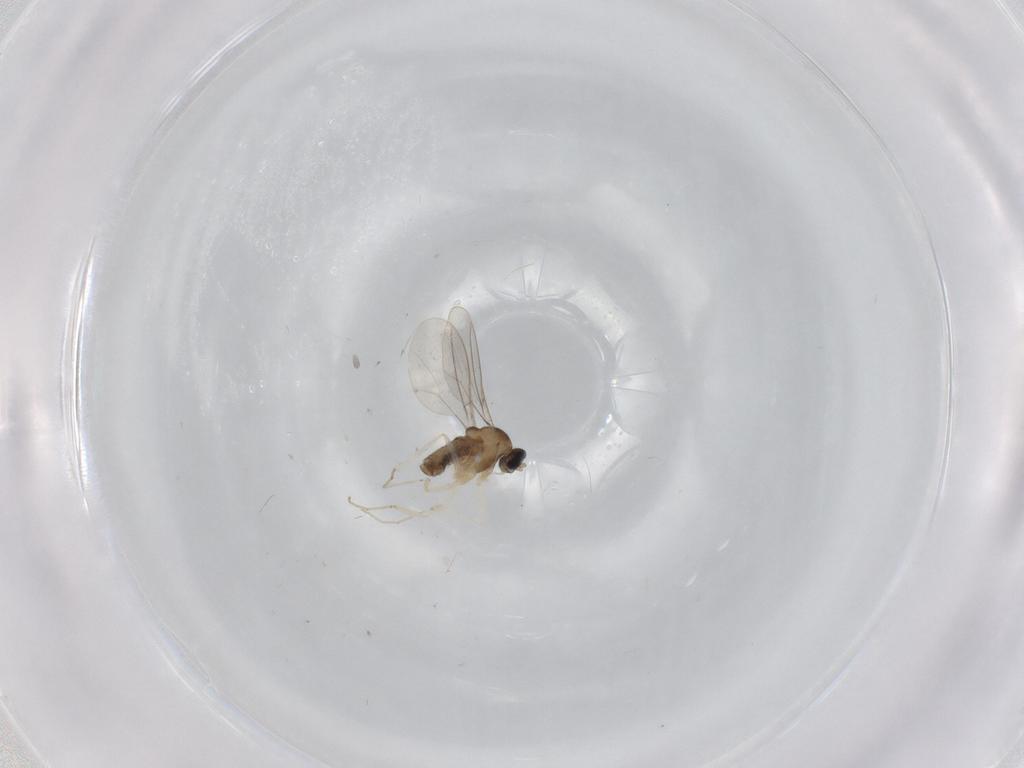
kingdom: Animalia
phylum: Arthropoda
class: Insecta
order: Diptera
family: Cecidomyiidae
